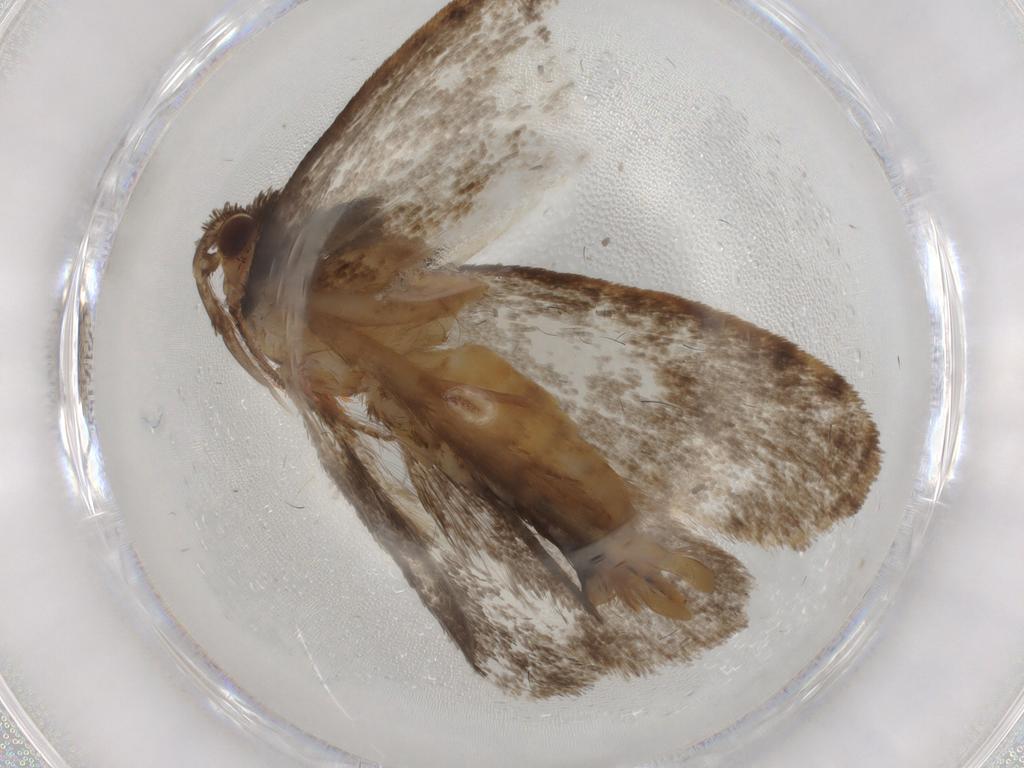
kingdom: Animalia
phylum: Arthropoda
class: Insecta
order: Lepidoptera
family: Tineidae
